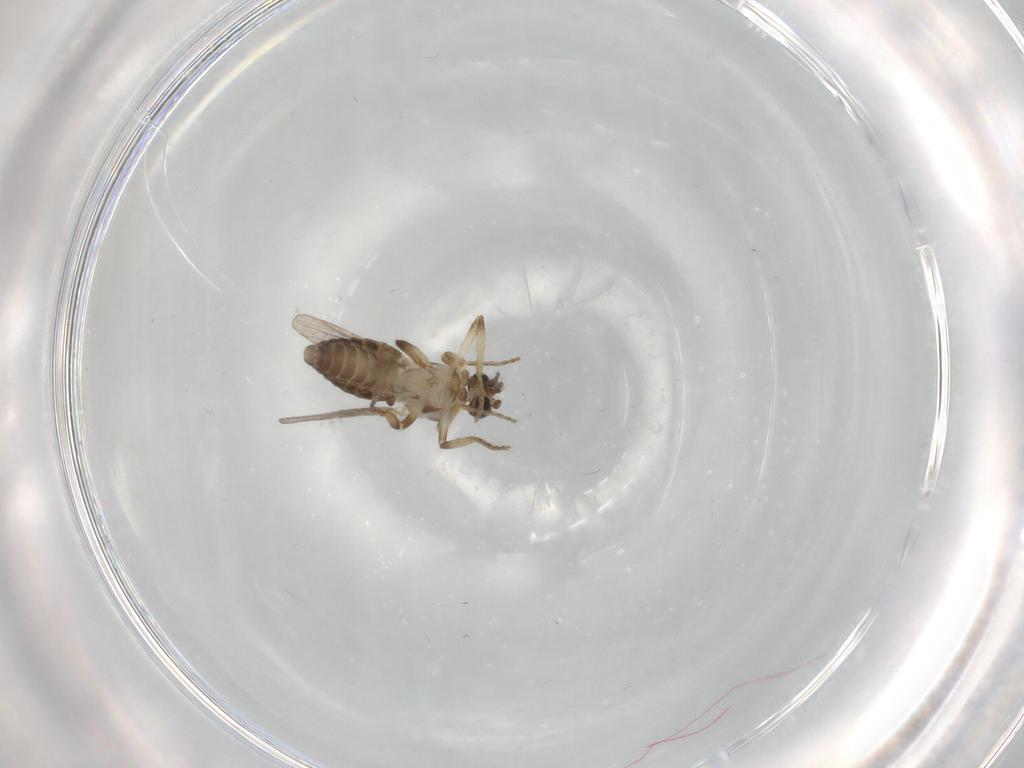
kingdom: Animalia
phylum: Arthropoda
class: Insecta
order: Diptera
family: Ceratopogonidae
